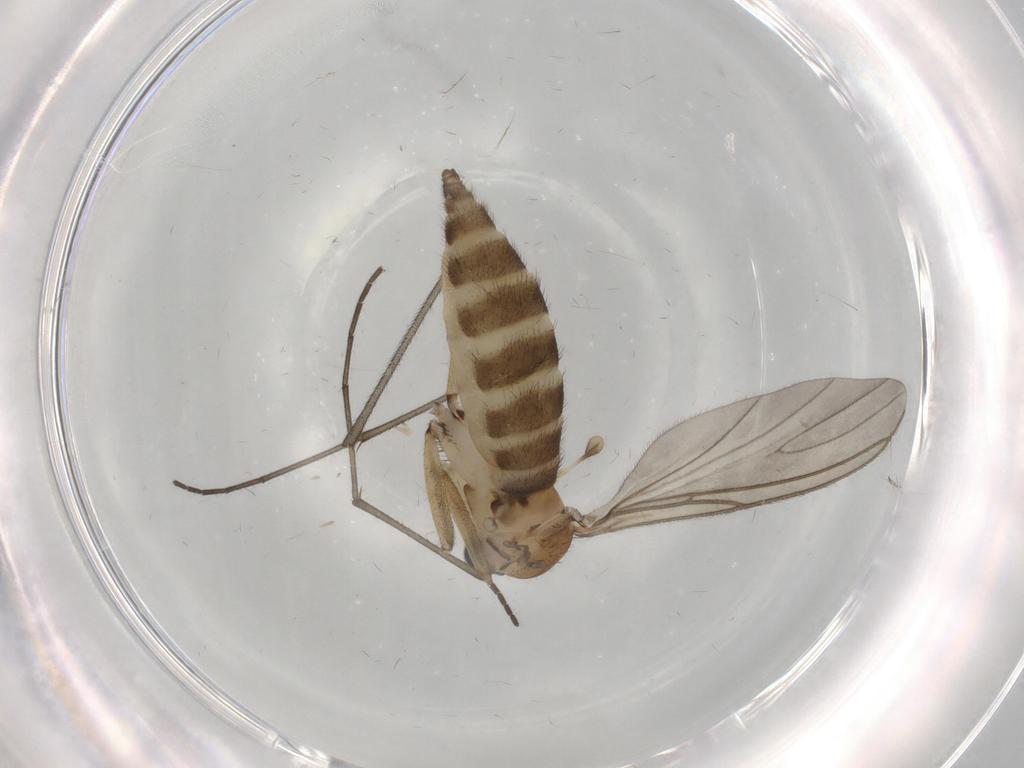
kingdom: Animalia
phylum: Arthropoda
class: Insecta
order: Diptera
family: Sciaridae
